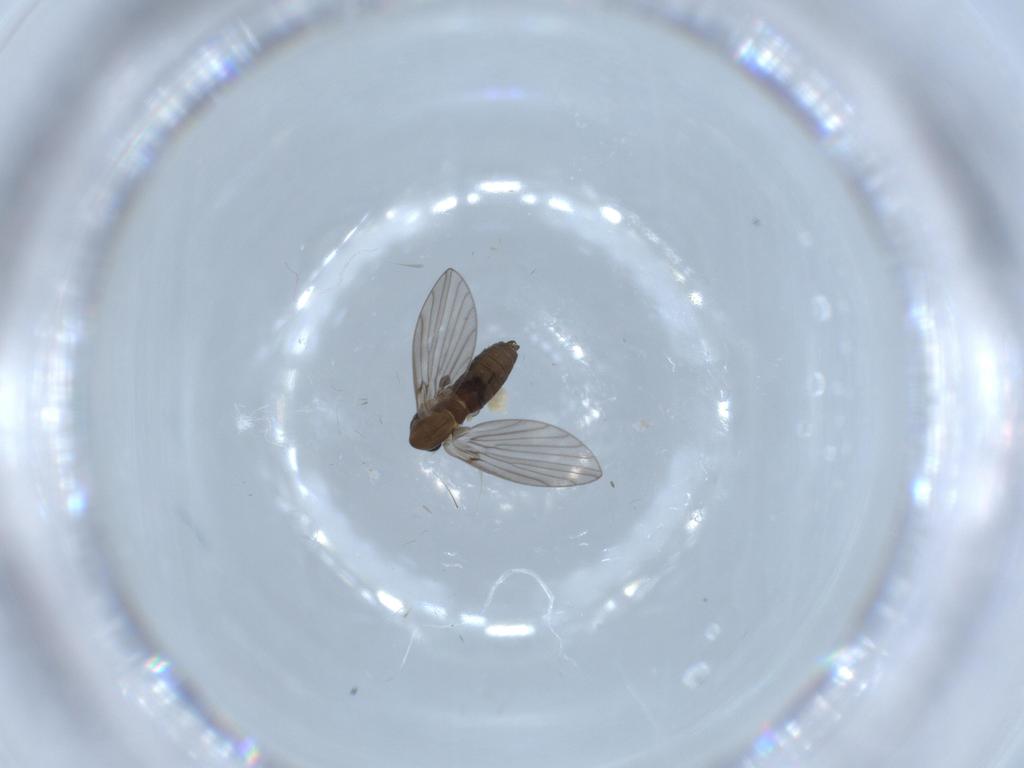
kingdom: Animalia
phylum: Arthropoda
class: Insecta
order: Diptera
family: Psychodidae
